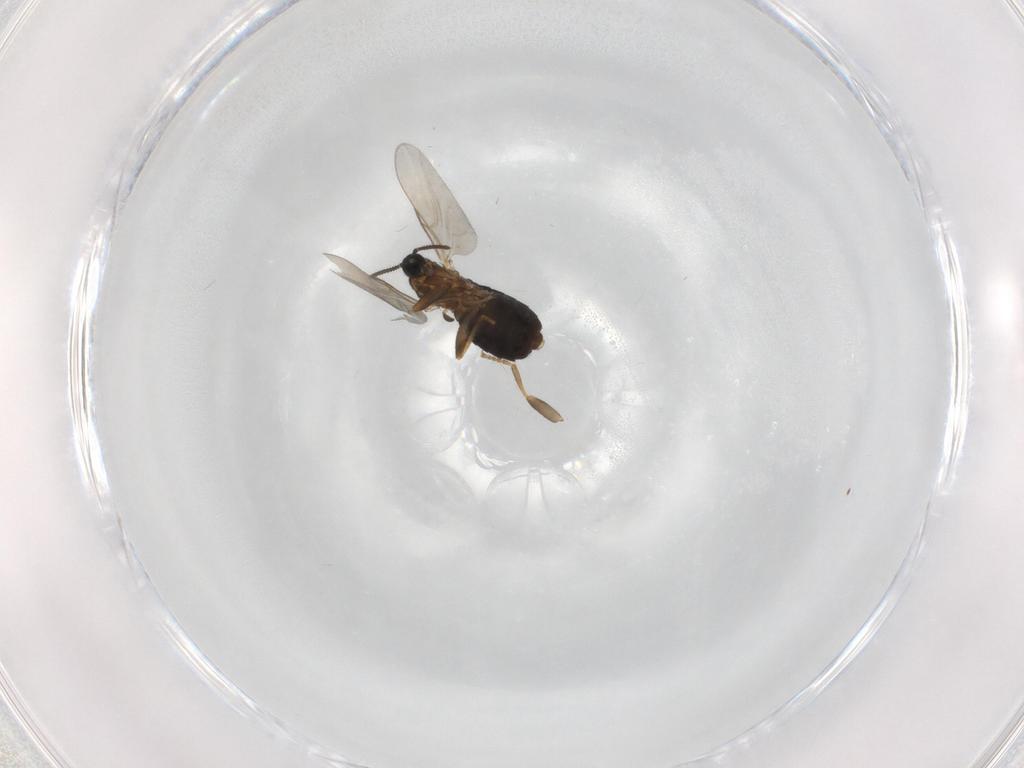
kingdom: Animalia
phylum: Arthropoda
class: Insecta
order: Diptera
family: Scatopsidae
